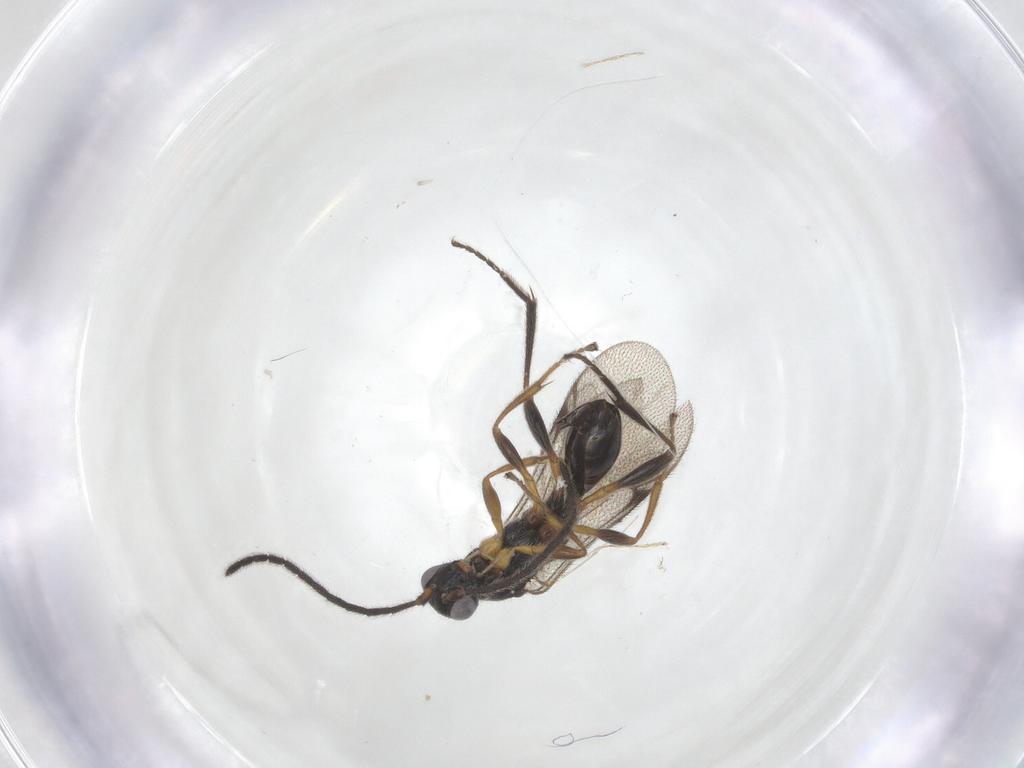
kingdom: Animalia
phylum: Arthropoda
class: Insecta
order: Hymenoptera
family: Proctotrupidae
